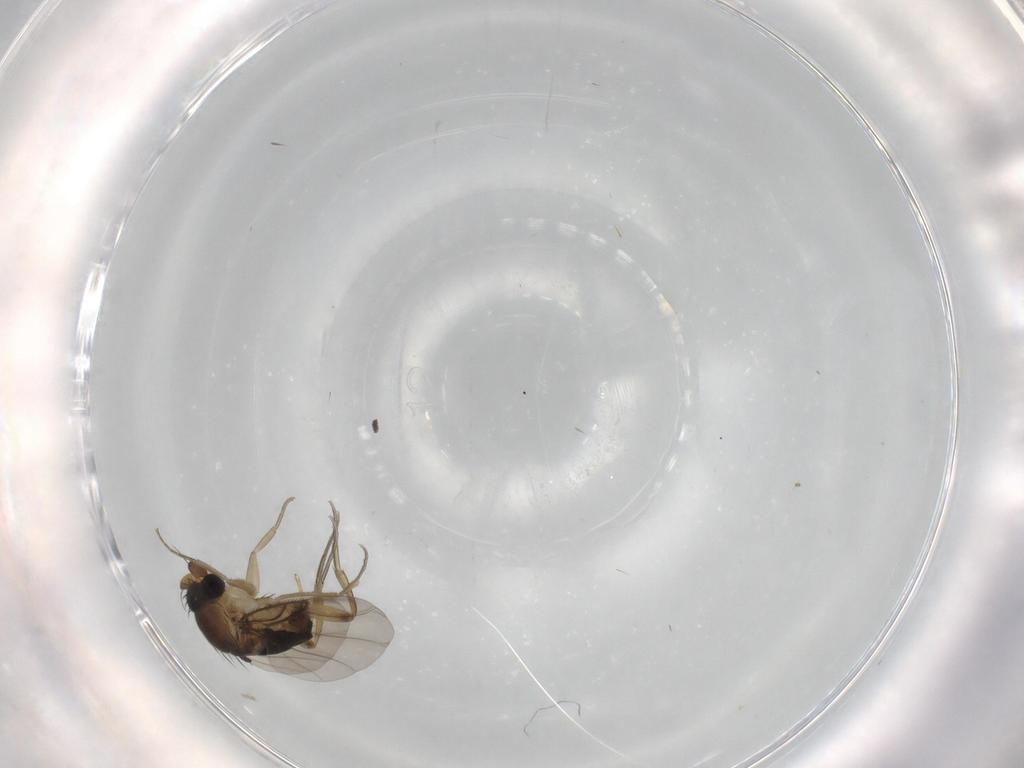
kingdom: Animalia
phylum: Arthropoda
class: Insecta
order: Diptera
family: Phoridae
